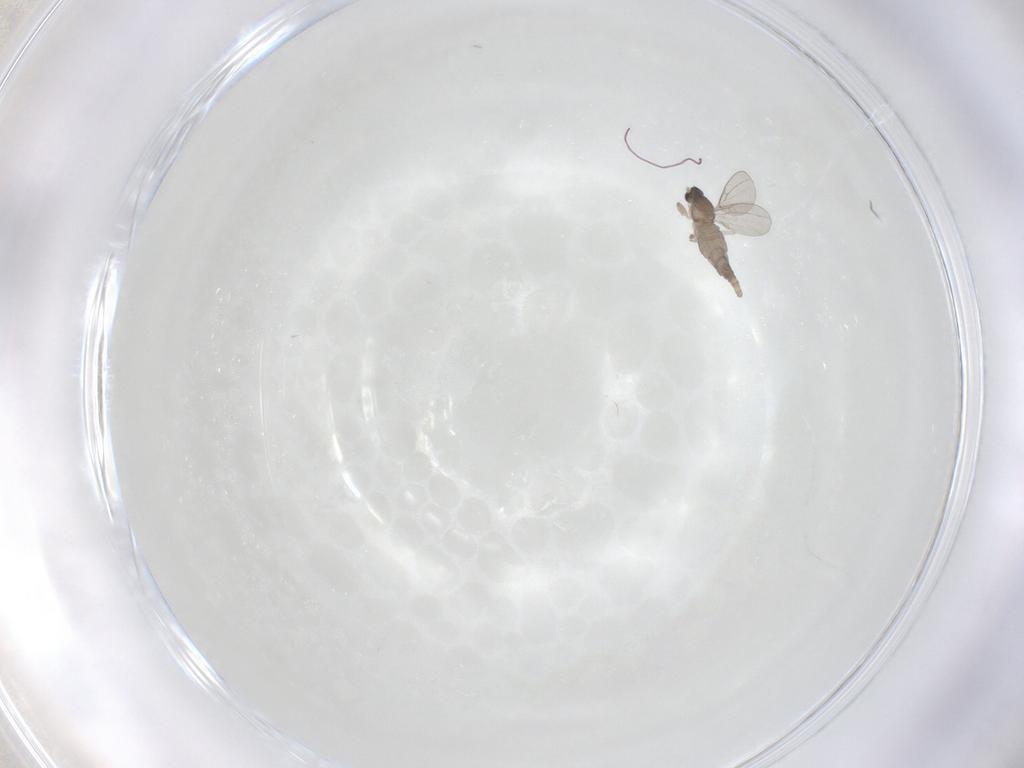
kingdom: Animalia
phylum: Arthropoda
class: Insecta
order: Diptera
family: Cecidomyiidae
